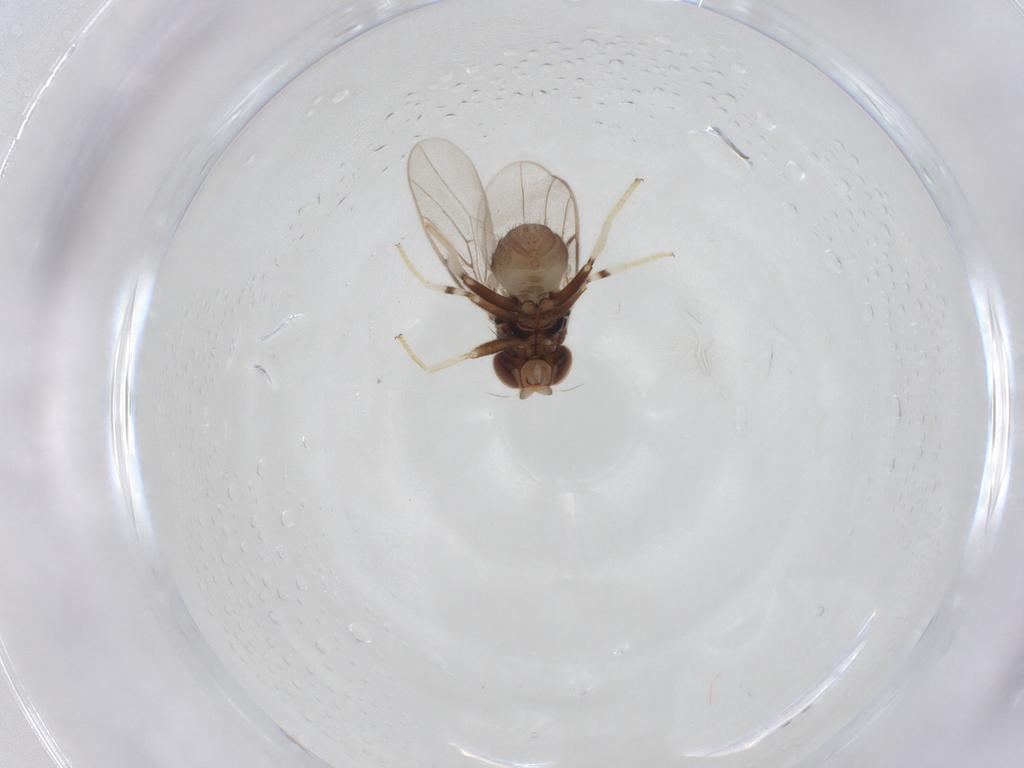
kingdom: Animalia
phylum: Arthropoda
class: Insecta
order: Diptera
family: Chloropidae
